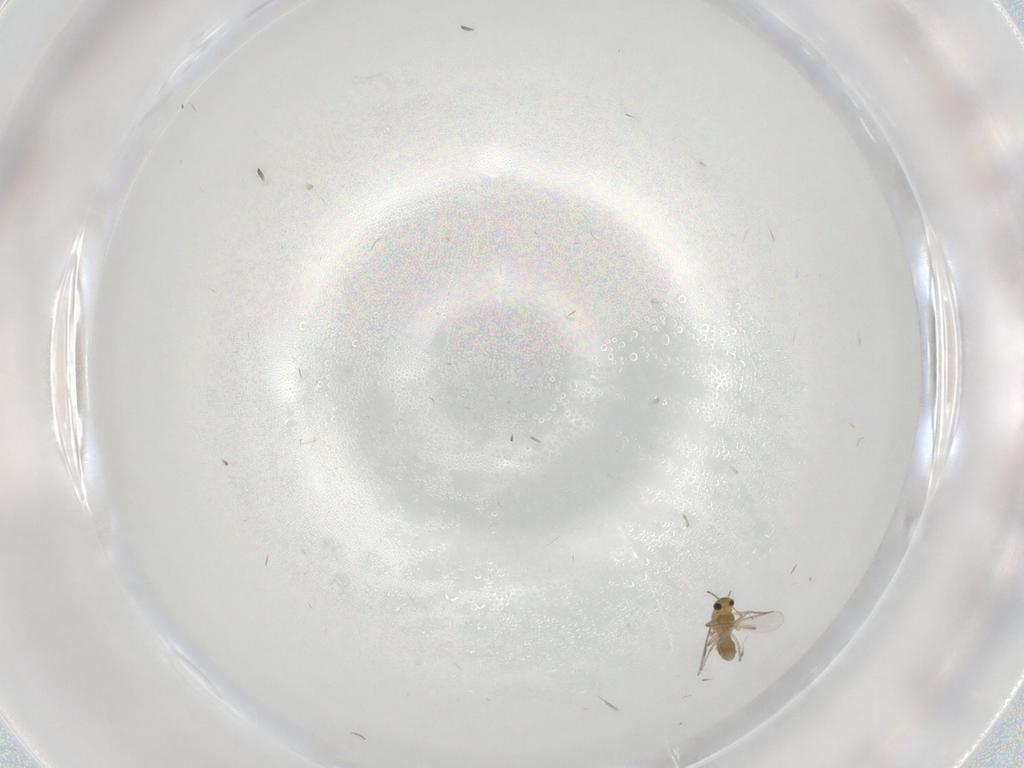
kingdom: Animalia
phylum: Arthropoda
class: Insecta
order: Diptera
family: Cecidomyiidae
